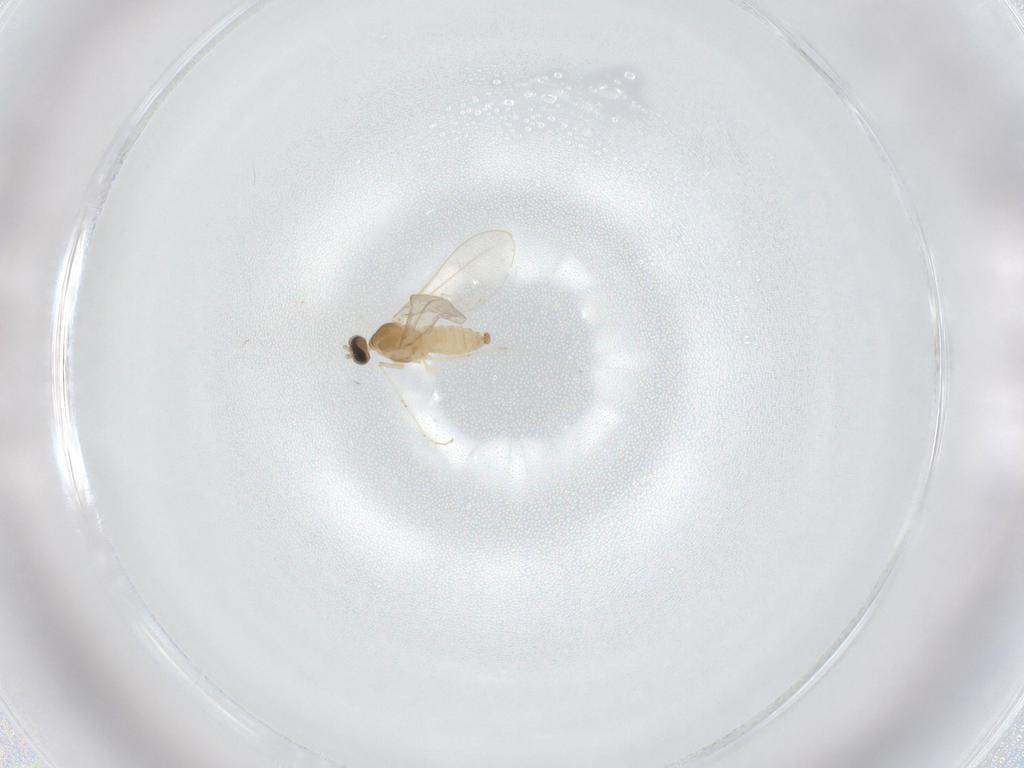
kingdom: Animalia
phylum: Arthropoda
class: Insecta
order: Diptera
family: Cecidomyiidae
